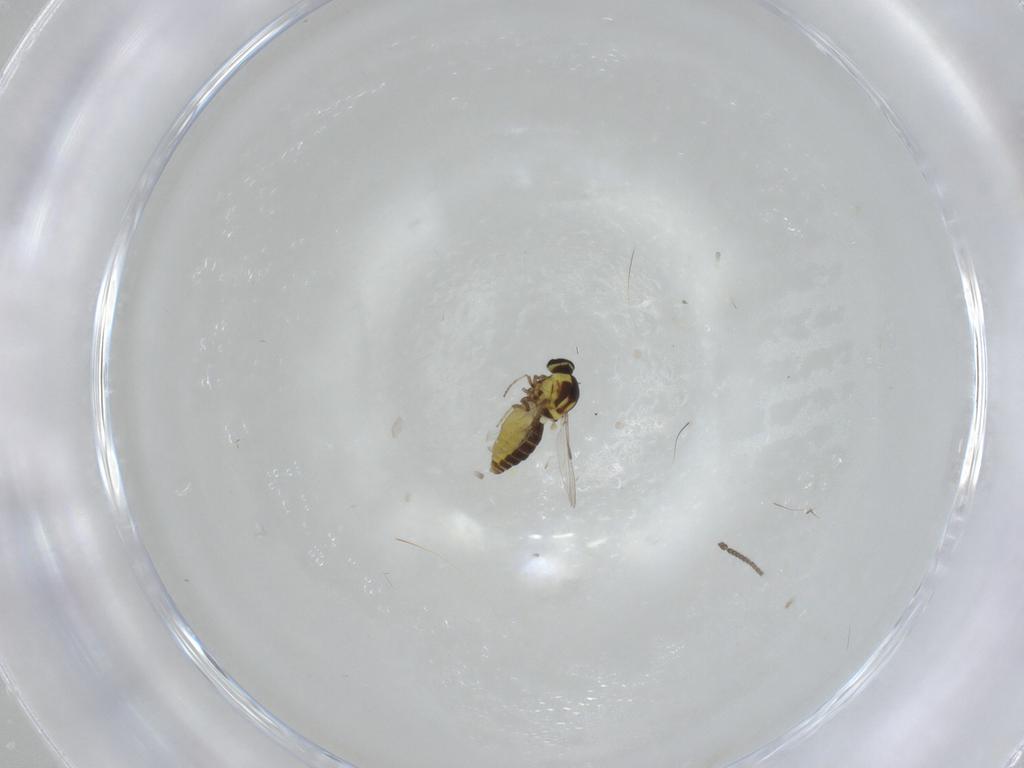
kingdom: Animalia
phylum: Arthropoda
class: Insecta
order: Diptera
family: Ceratopogonidae
